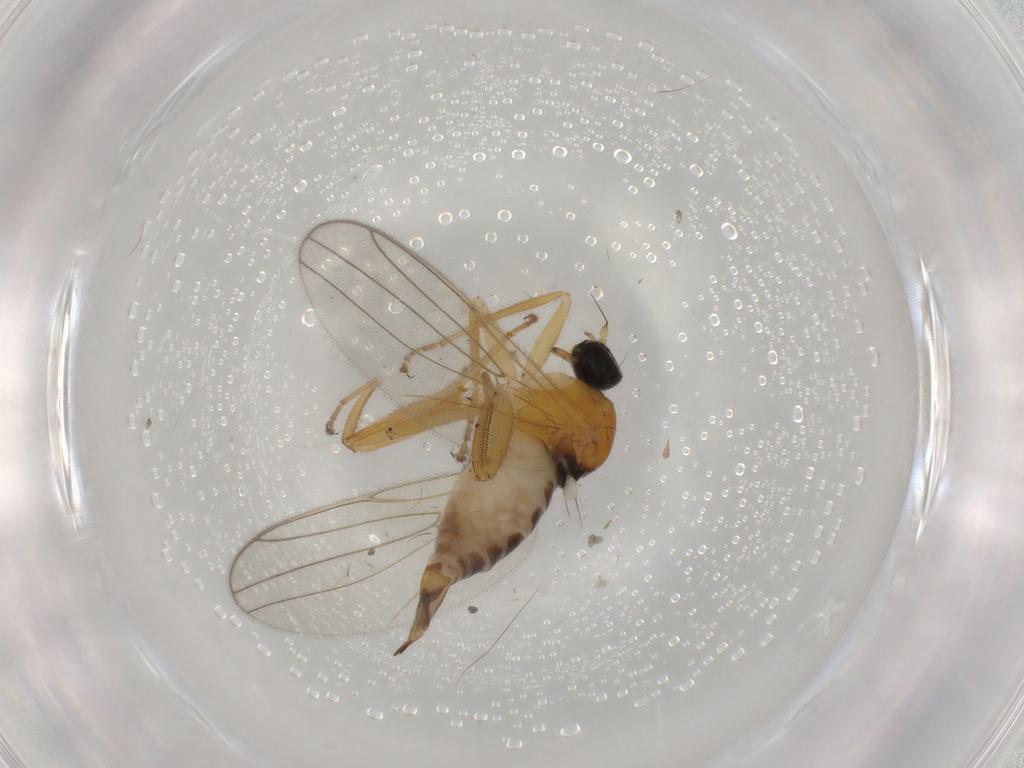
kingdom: Animalia
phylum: Arthropoda
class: Insecta
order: Diptera
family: Hybotidae
